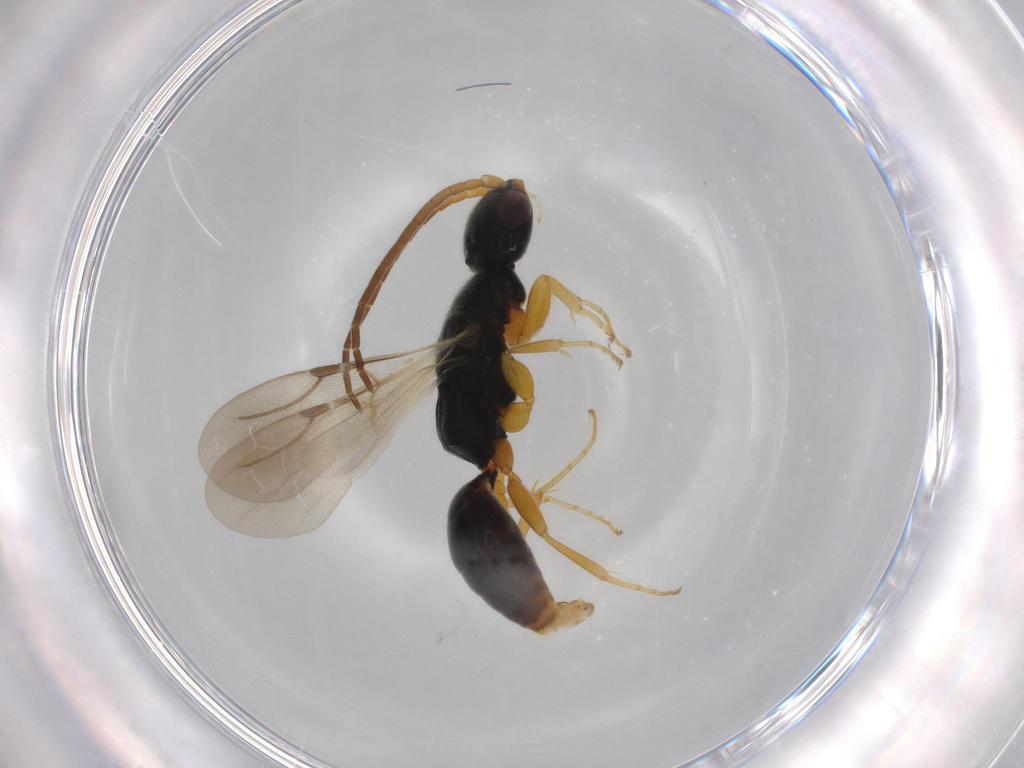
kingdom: Animalia
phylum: Arthropoda
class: Insecta
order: Hymenoptera
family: Bethylidae
